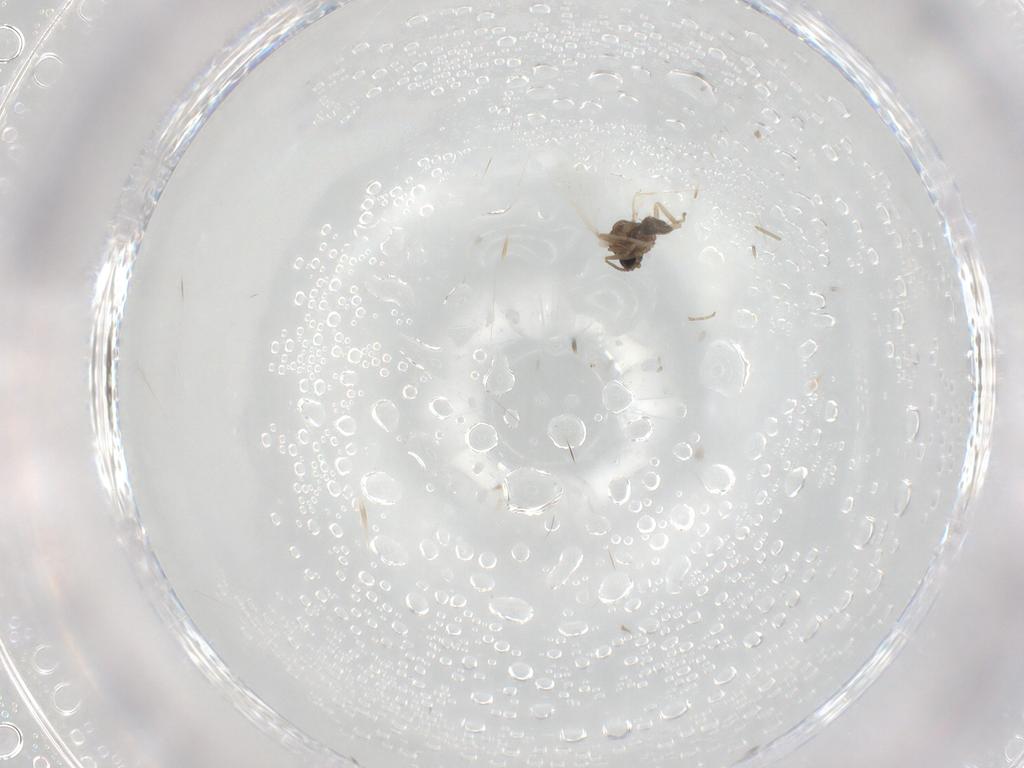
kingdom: Animalia
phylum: Arthropoda
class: Insecta
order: Diptera
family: Cecidomyiidae
